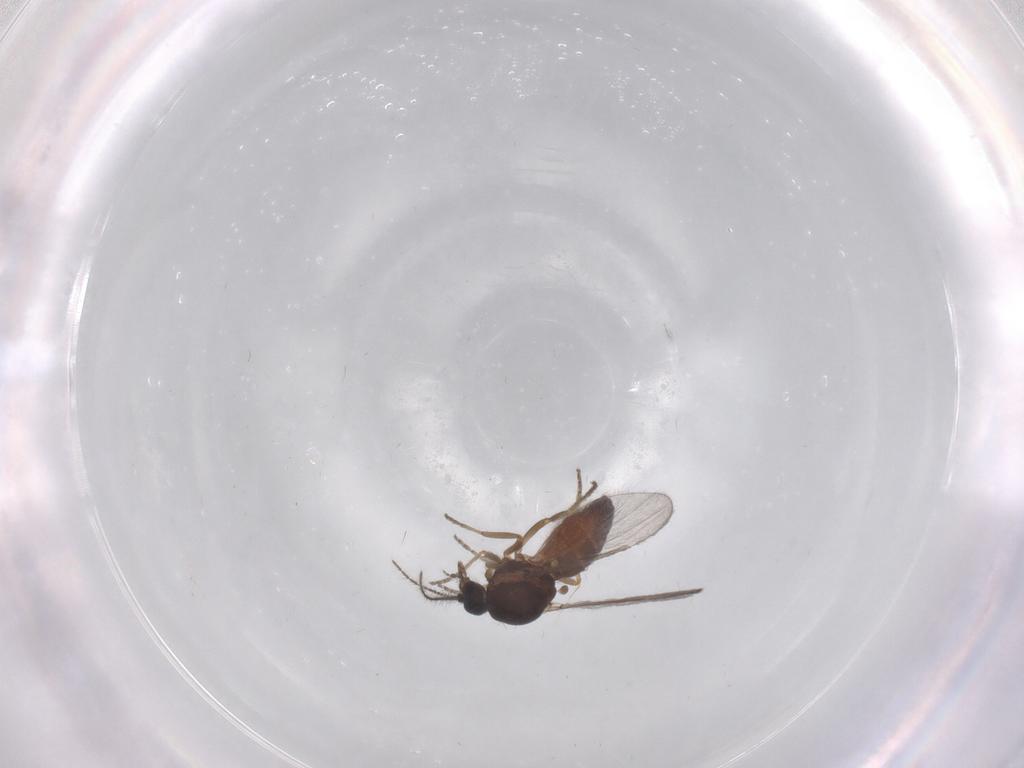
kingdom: Animalia
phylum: Arthropoda
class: Insecta
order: Diptera
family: Ceratopogonidae
